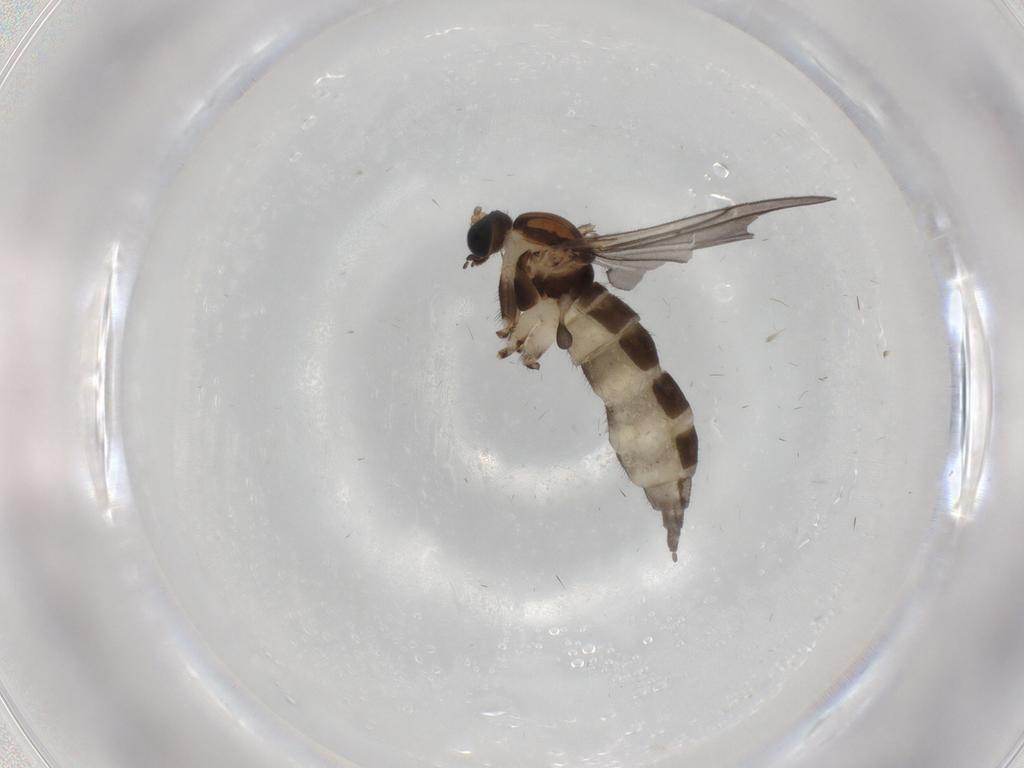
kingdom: Animalia
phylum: Arthropoda
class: Insecta
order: Diptera
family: Sciaridae
